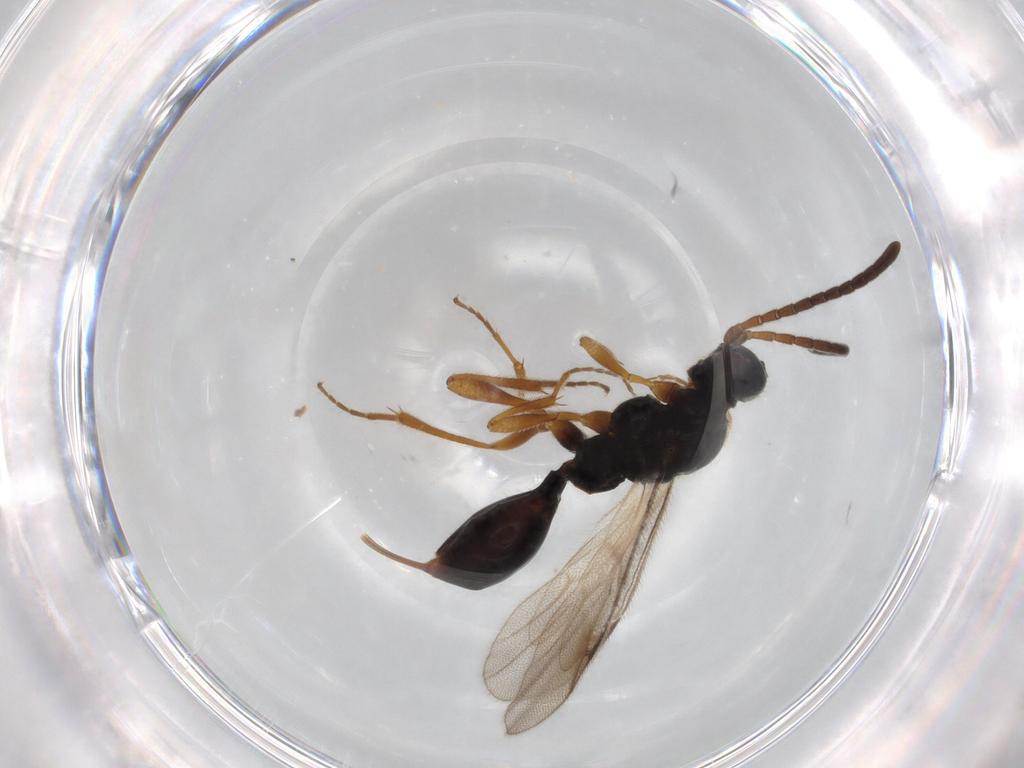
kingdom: Animalia
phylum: Arthropoda
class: Insecta
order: Hymenoptera
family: Proctotrupidae
